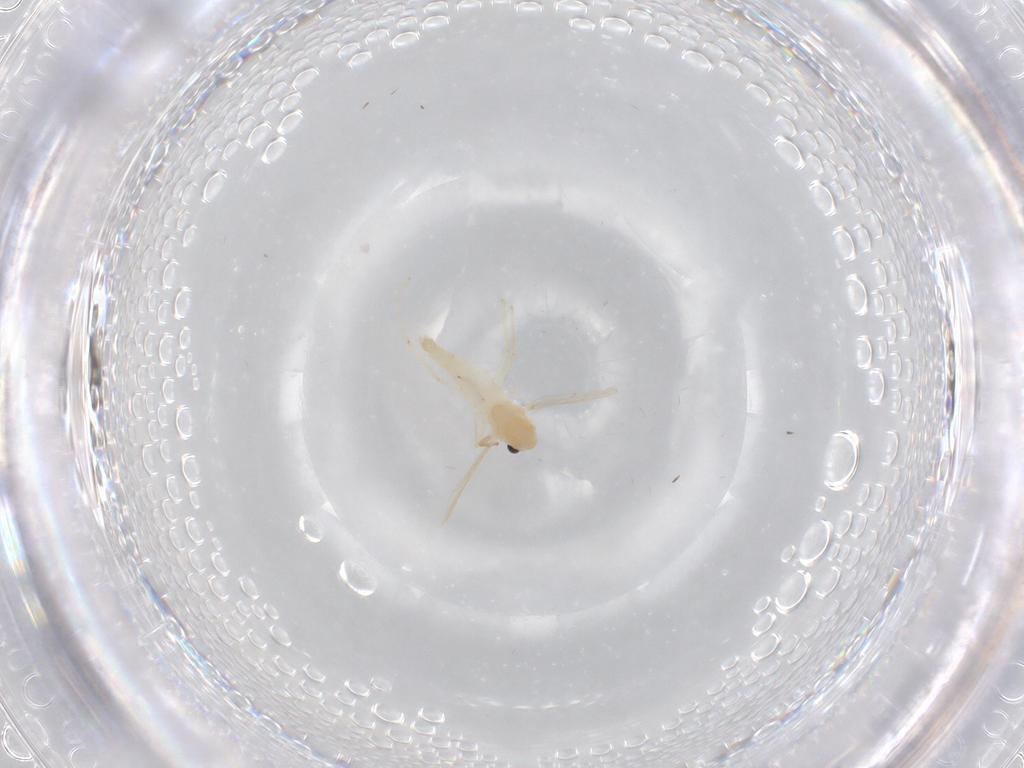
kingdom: Animalia
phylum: Arthropoda
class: Insecta
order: Diptera
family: Chironomidae
